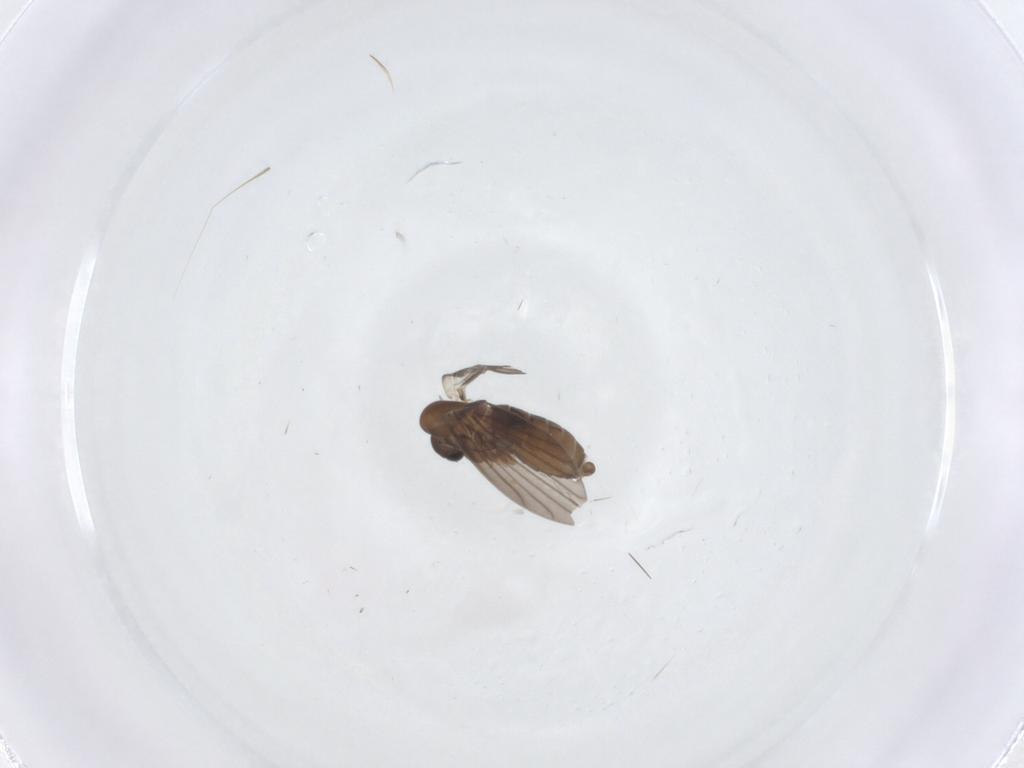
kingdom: Animalia
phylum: Arthropoda
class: Insecta
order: Diptera
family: Psychodidae
